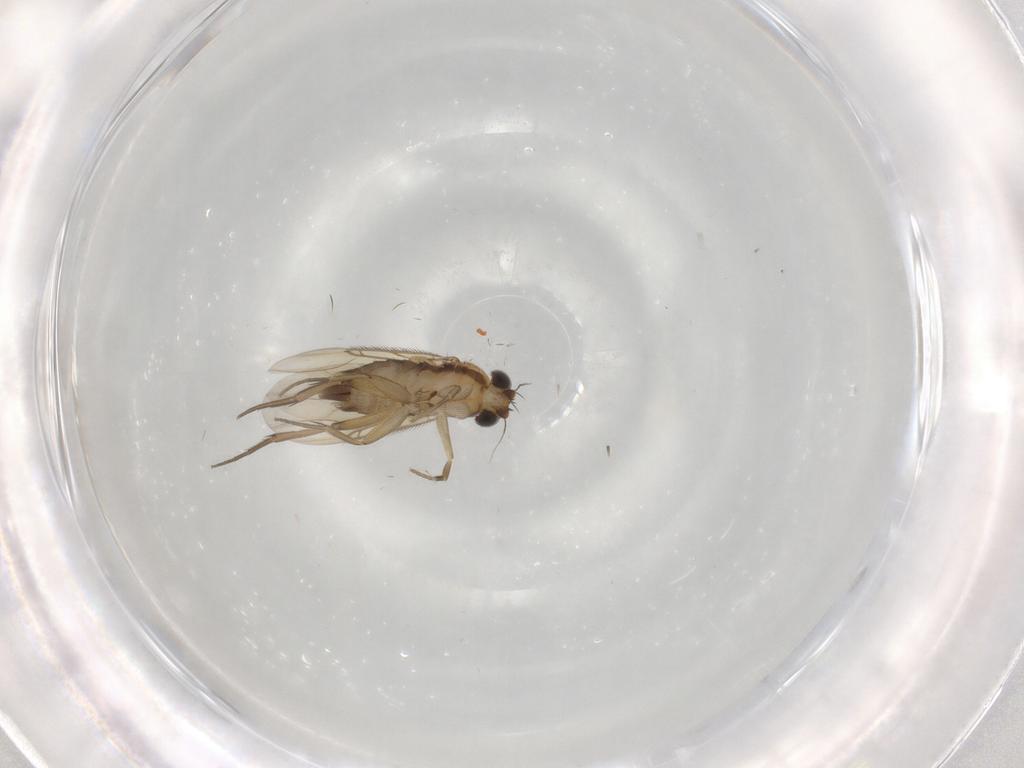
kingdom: Animalia
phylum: Arthropoda
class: Insecta
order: Diptera
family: Phoridae
